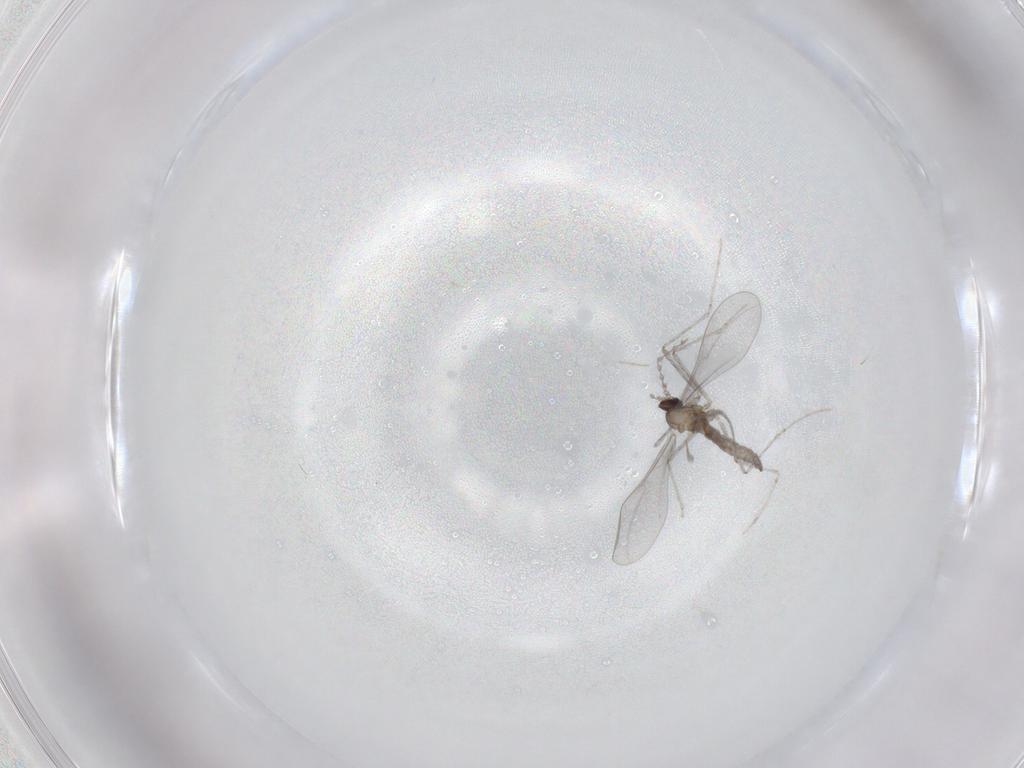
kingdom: Animalia
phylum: Arthropoda
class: Insecta
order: Diptera
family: Cecidomyiidae
